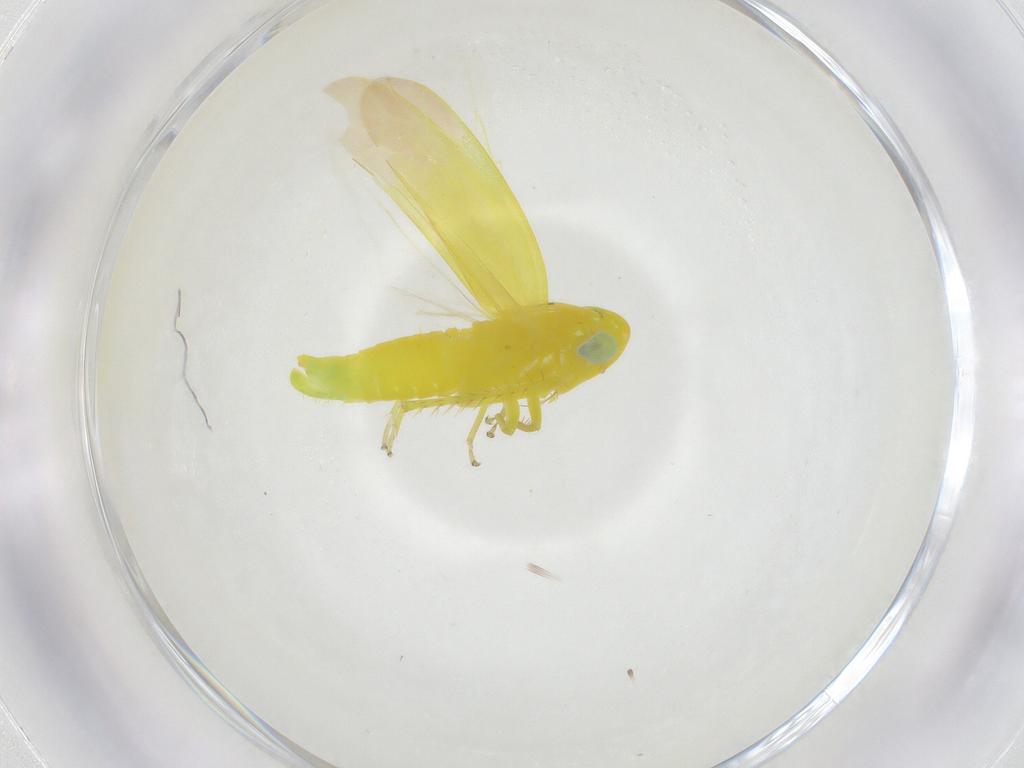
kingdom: Animalia
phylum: Arthropoda
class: Insecta
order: Hemiptera
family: Cicadellidae
